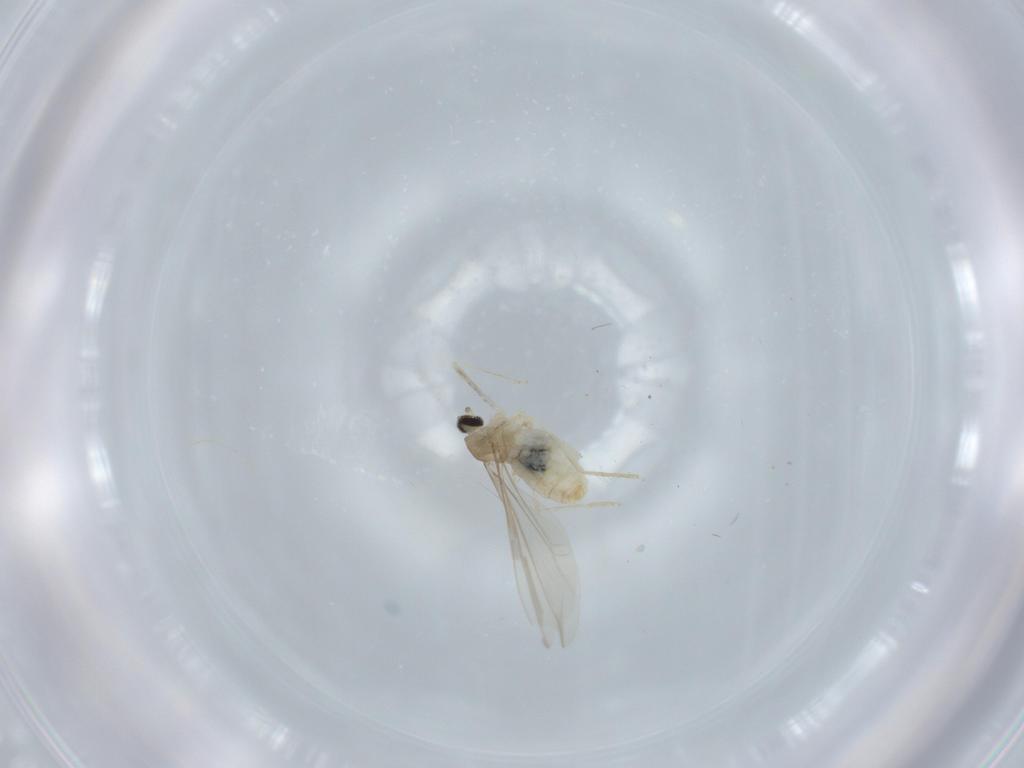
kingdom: Animalia
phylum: Arthropoda
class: Insecta
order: Diptera
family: Cecidomyiidae
